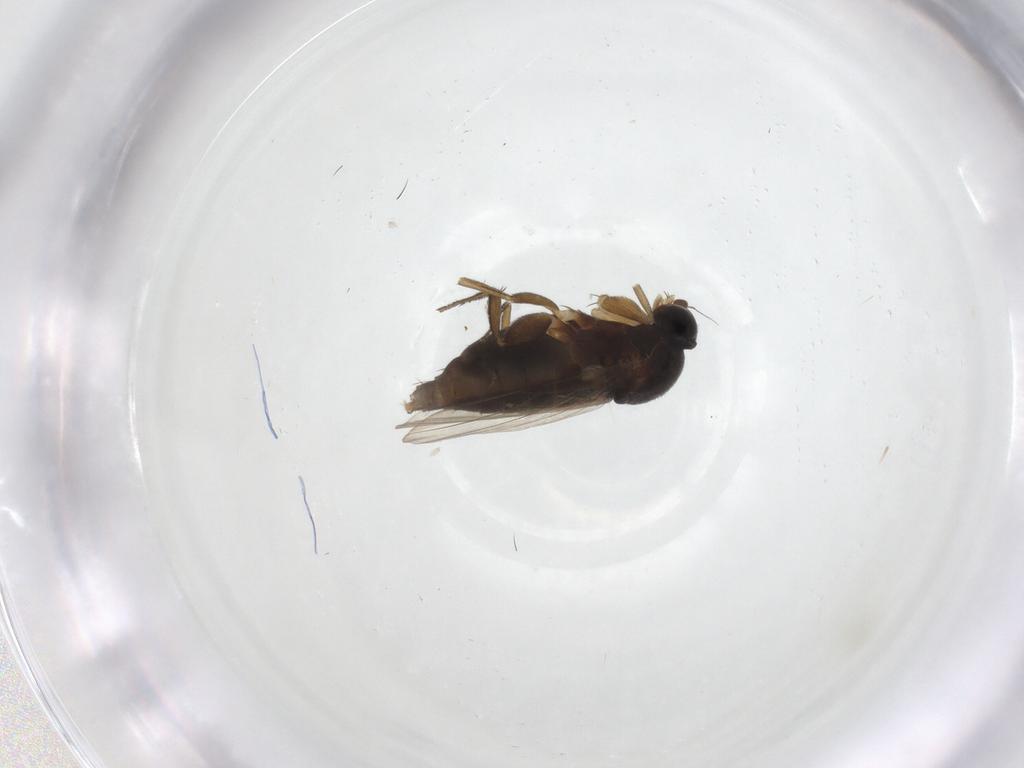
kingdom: Animalia
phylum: Arthropoda
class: Insecta
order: Diptera
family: Phoridae
